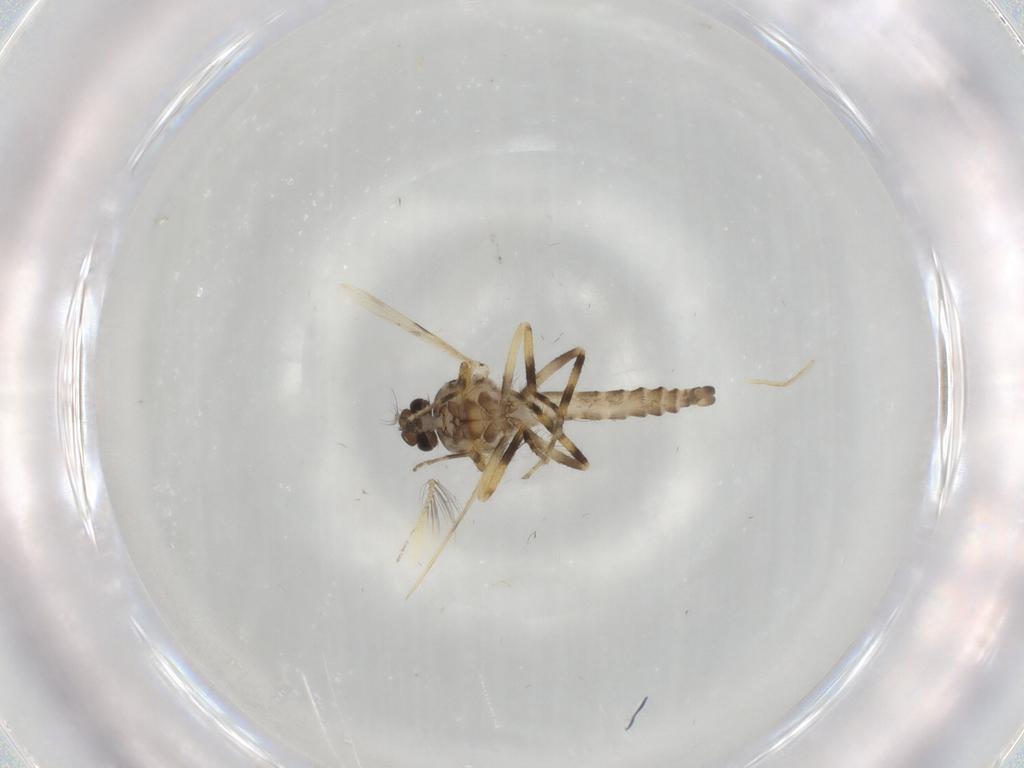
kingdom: Animalia
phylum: Arthropoda
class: Insecta
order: Diptera
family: Ceratopogonidae
